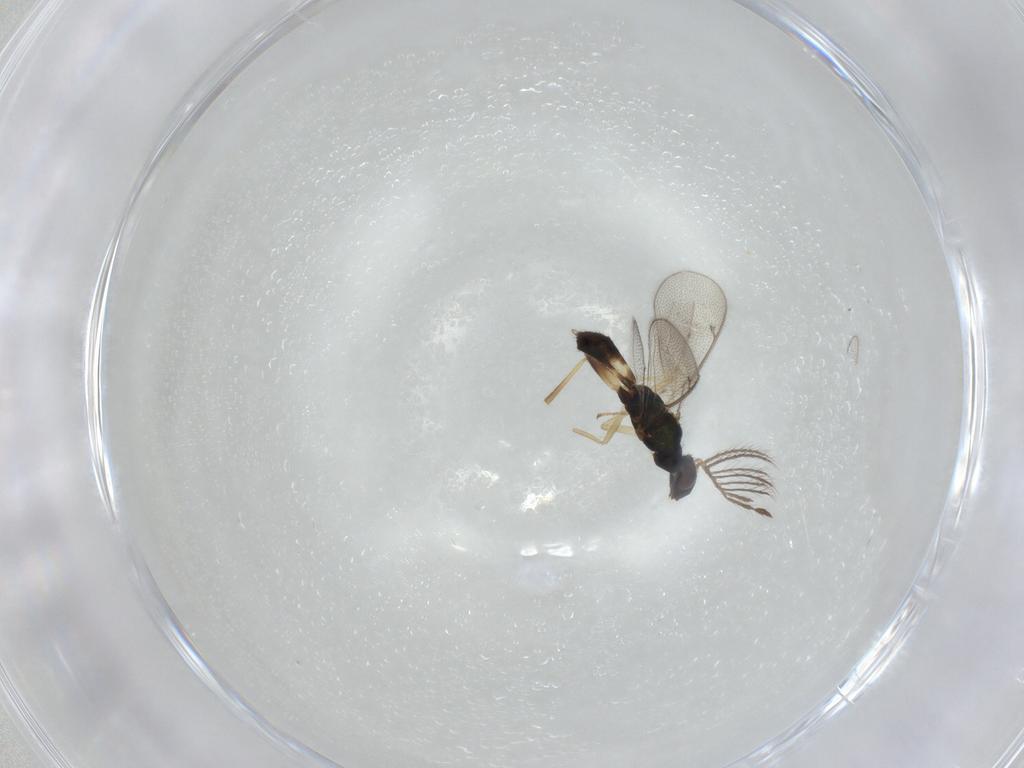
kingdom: Animalia
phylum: Arthropoda
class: Insecta
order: Hymenoptera
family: Eulophidae
